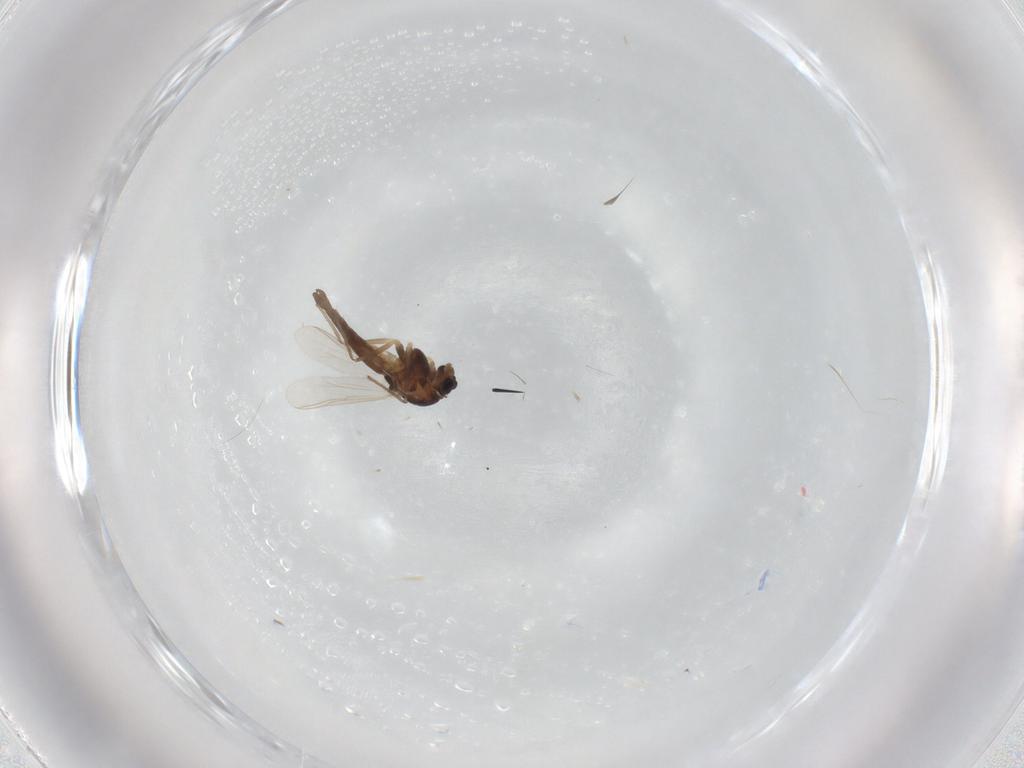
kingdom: Animalia
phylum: Arthropoda
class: Insecta
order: Diptera
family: Chironomidae
